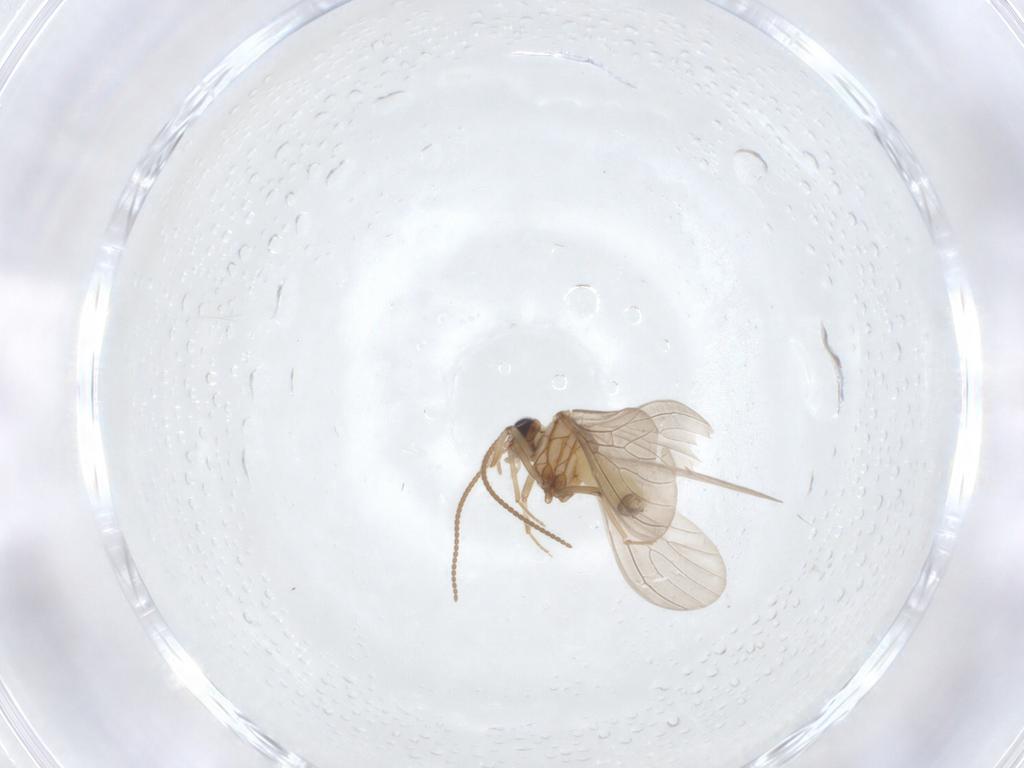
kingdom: Animalia
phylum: Arthropoda
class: Insecta
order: Neuroptera
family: Coniopterygidae
